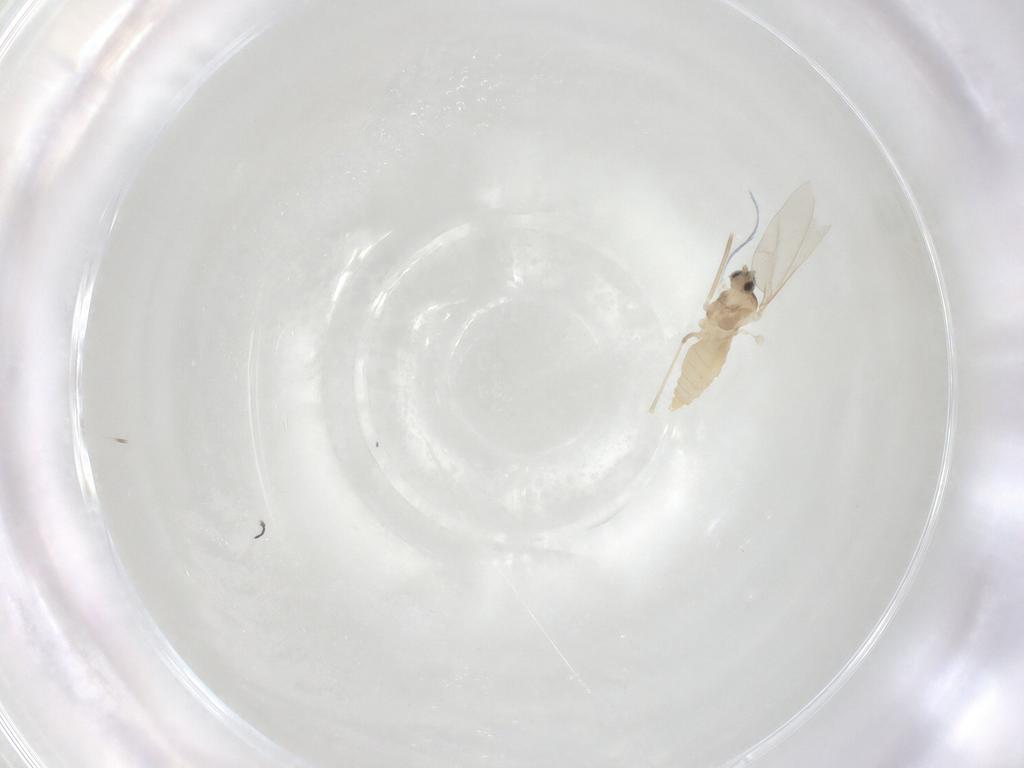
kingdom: Animalia
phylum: Arthropoda
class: Insecta
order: Diptera
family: Cecidomyiidae
